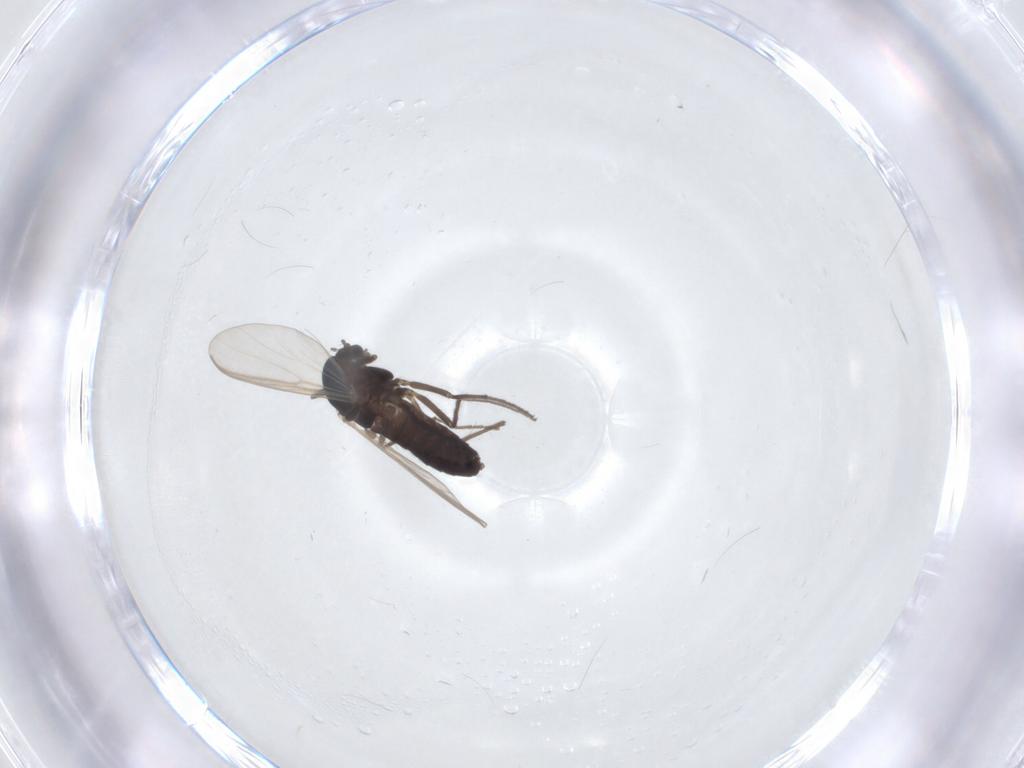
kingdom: Animalia
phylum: Arthropoda
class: Insecta
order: Diptera
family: Chironomidae
